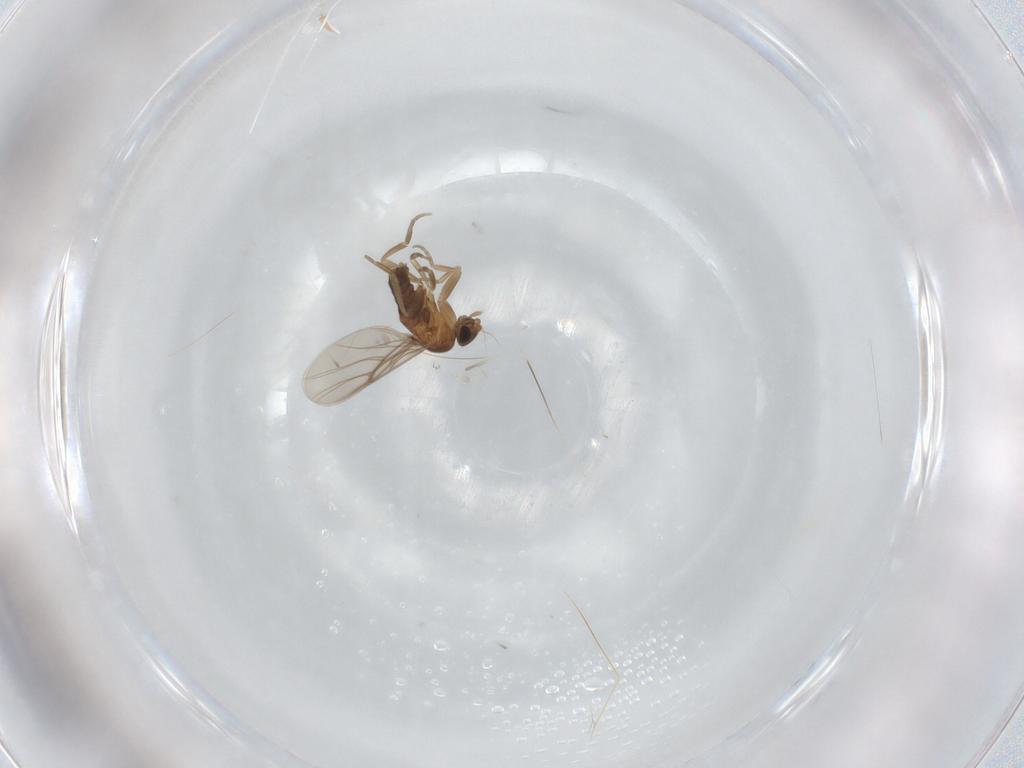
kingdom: Animalia
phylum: Arthropoda
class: Insecta
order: Diptera
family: Phoridae
